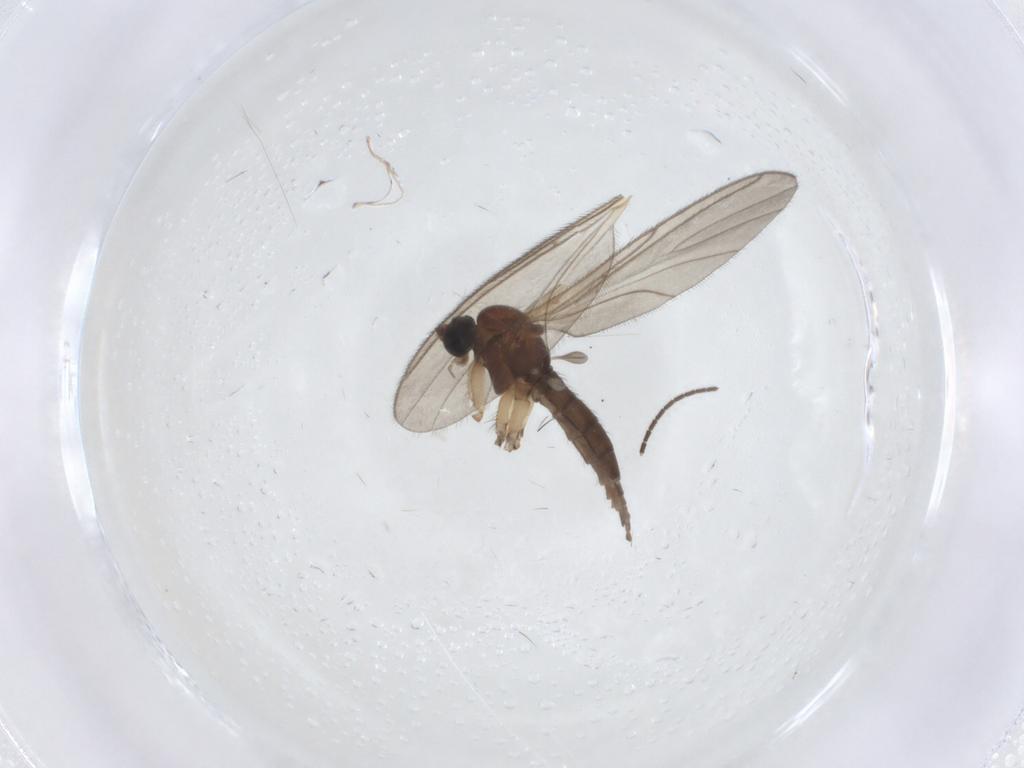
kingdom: Animalia
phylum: Arthropoda
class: Insecta
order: Diptera
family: Sciaridae
